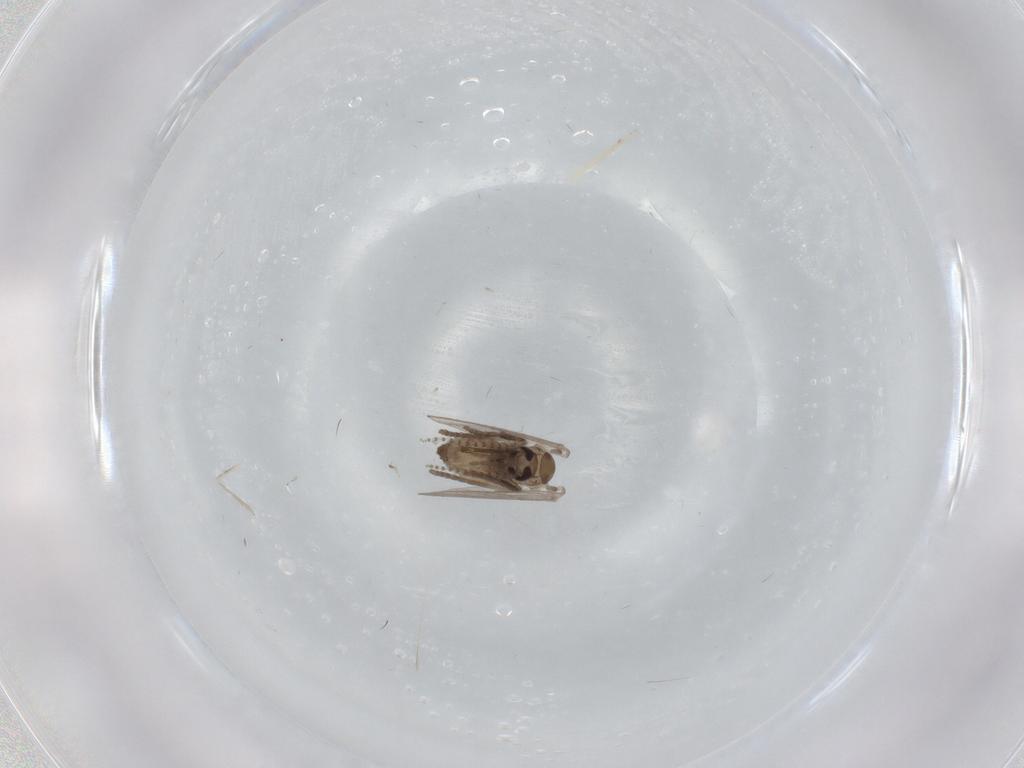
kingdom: Animalia
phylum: Arthropoda
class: Insecta
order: Diptera
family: Psychodidae
